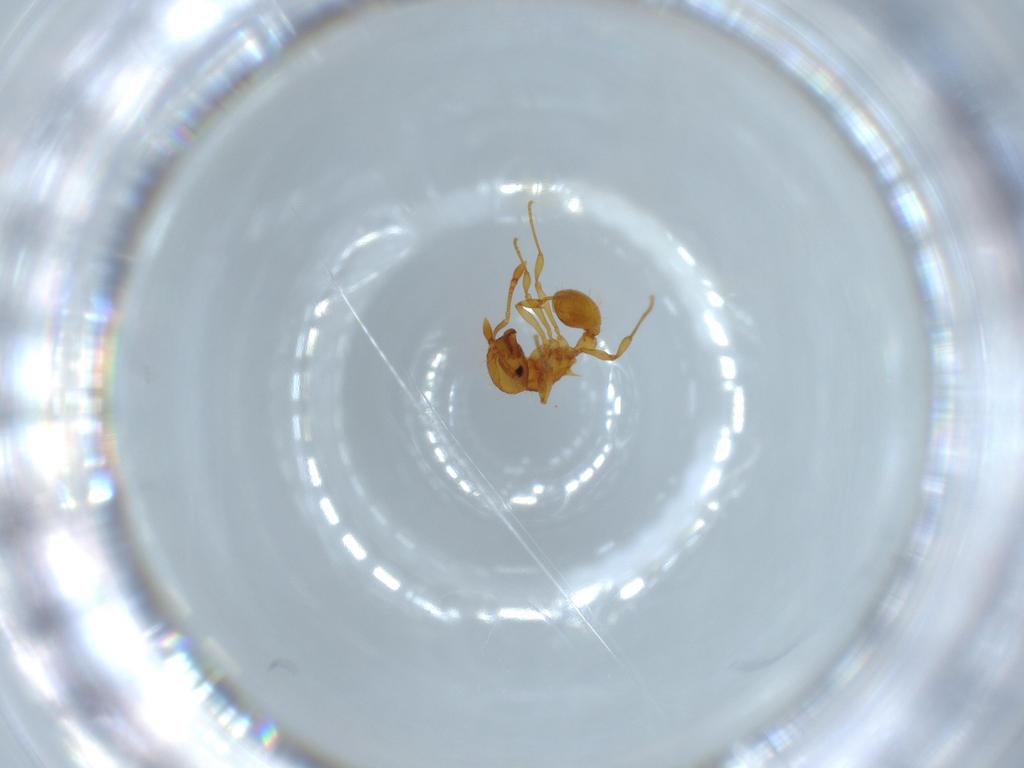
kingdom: Animalia
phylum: Arthropoda
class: Insecta
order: Hymenoptera
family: Formicidae
